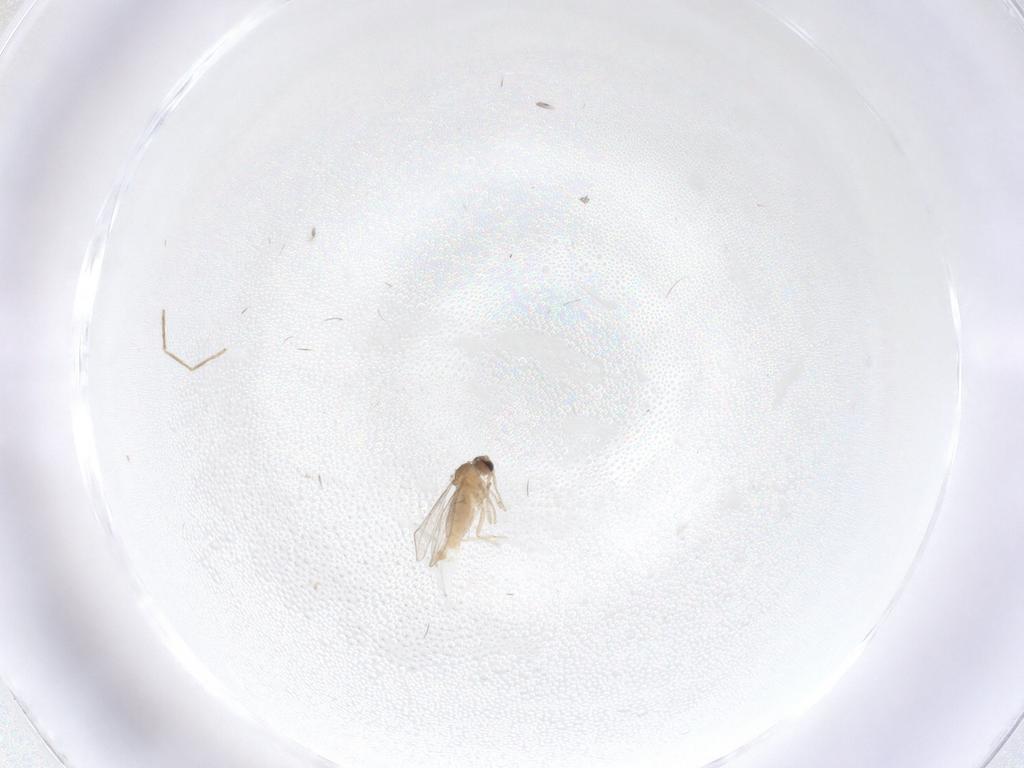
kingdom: Animalia
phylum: Arthropoda
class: Insecta
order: Diptera
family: Cecidomyiidae
